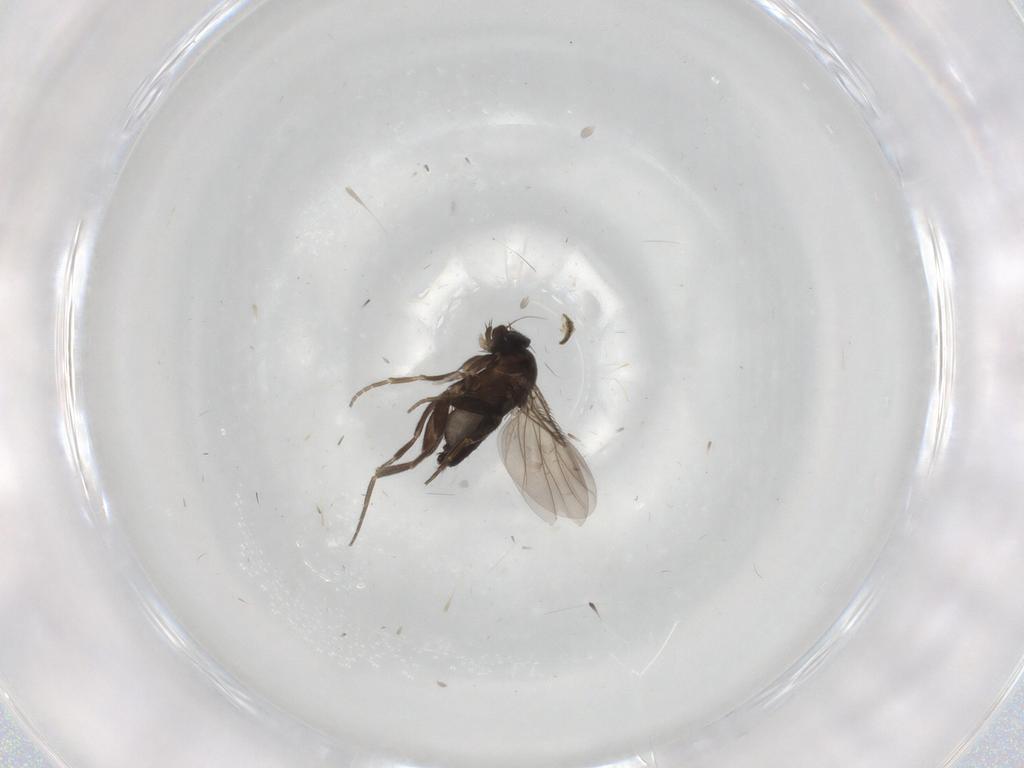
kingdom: Animalia
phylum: Arthropoda
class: Insecta
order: Diptera
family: Phoridae
